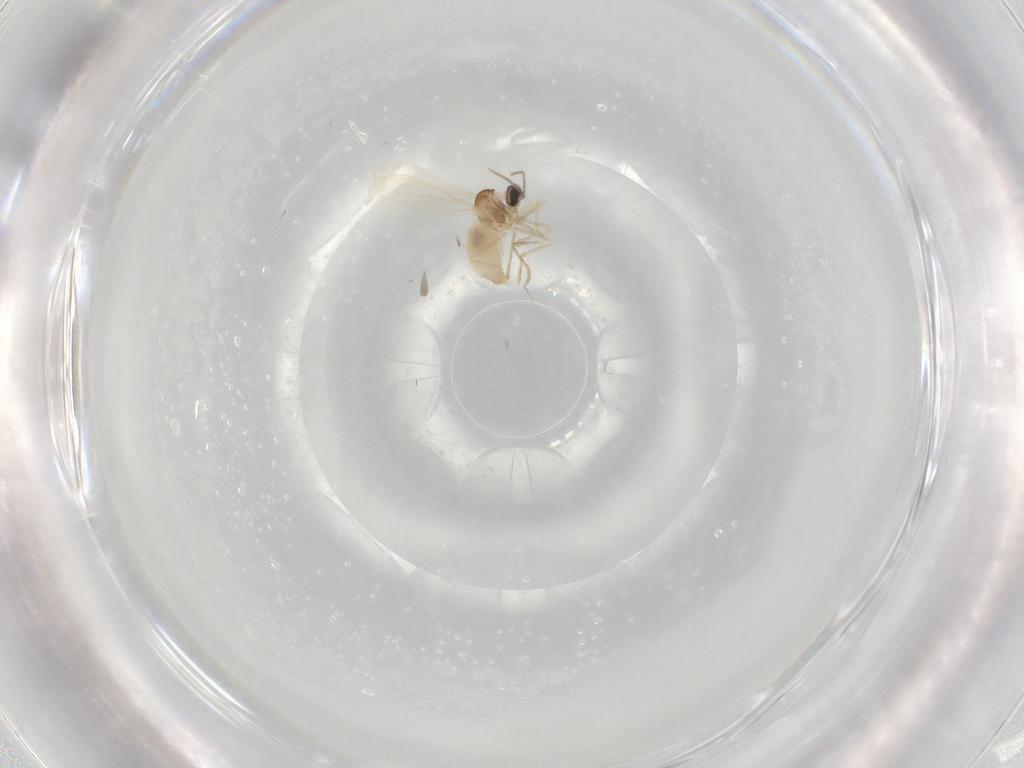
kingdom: Animalia
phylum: Arthropoda
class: Insecta
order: Diptera
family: Cecidomyiidae
